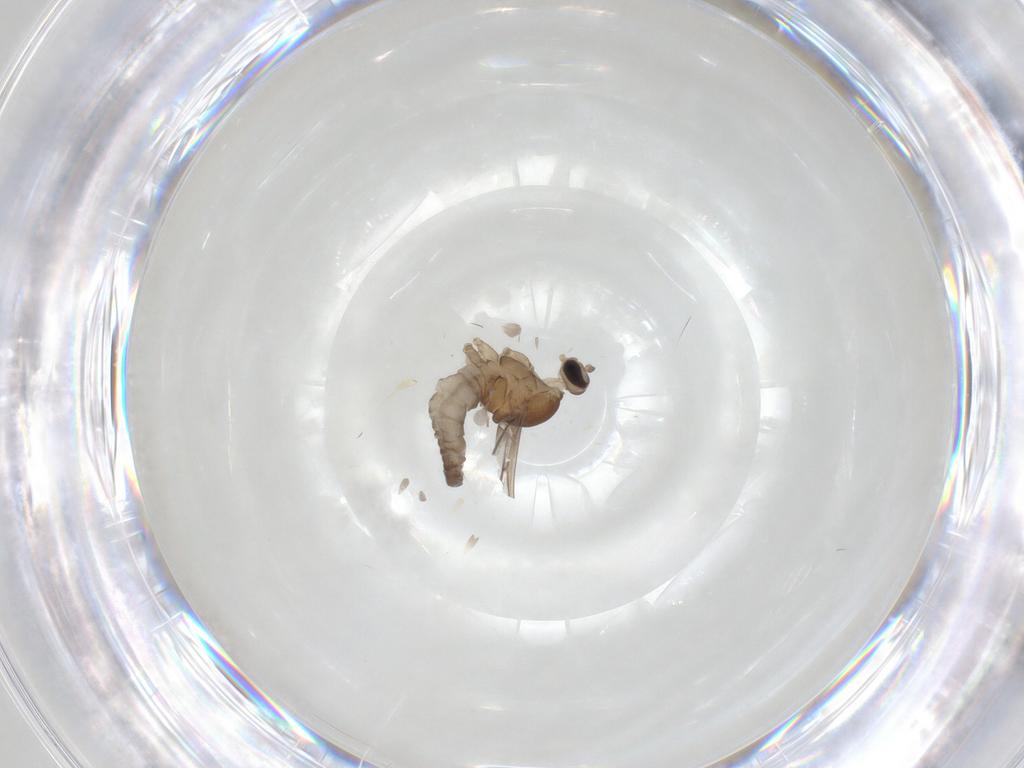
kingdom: Animalia
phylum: Arthropoda
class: Insecta
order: Diptera
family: Cecidomyiidae
